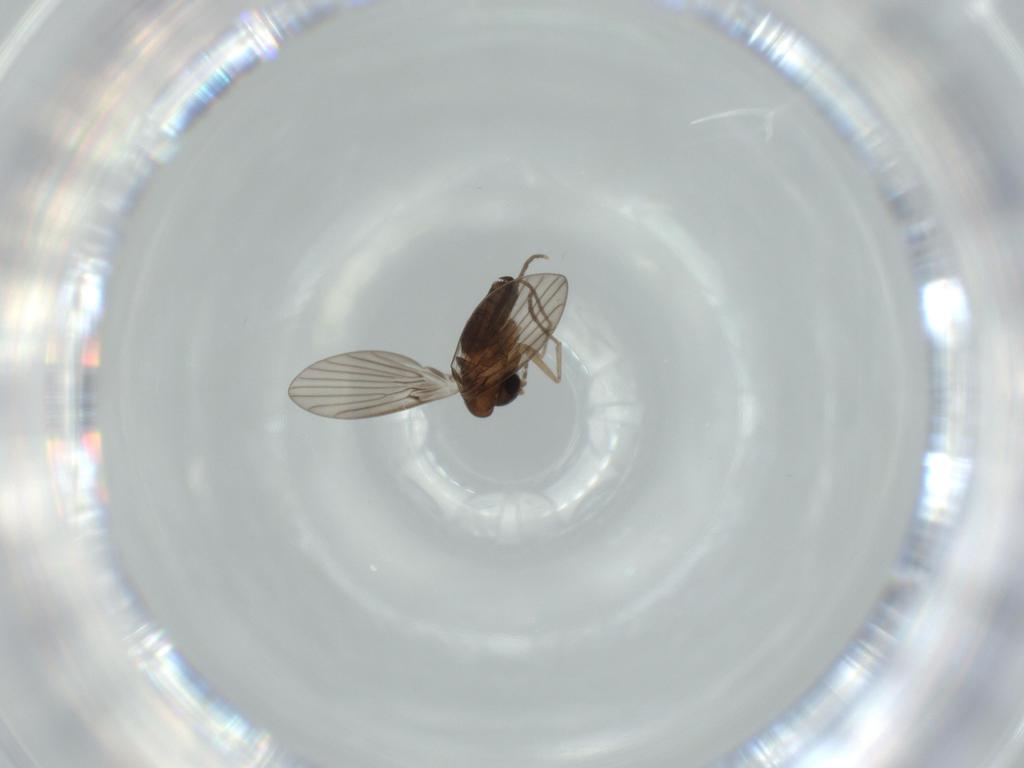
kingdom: Animalia
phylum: Arthropoda
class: Insecta
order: Diptera
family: Sphaeroceridae
